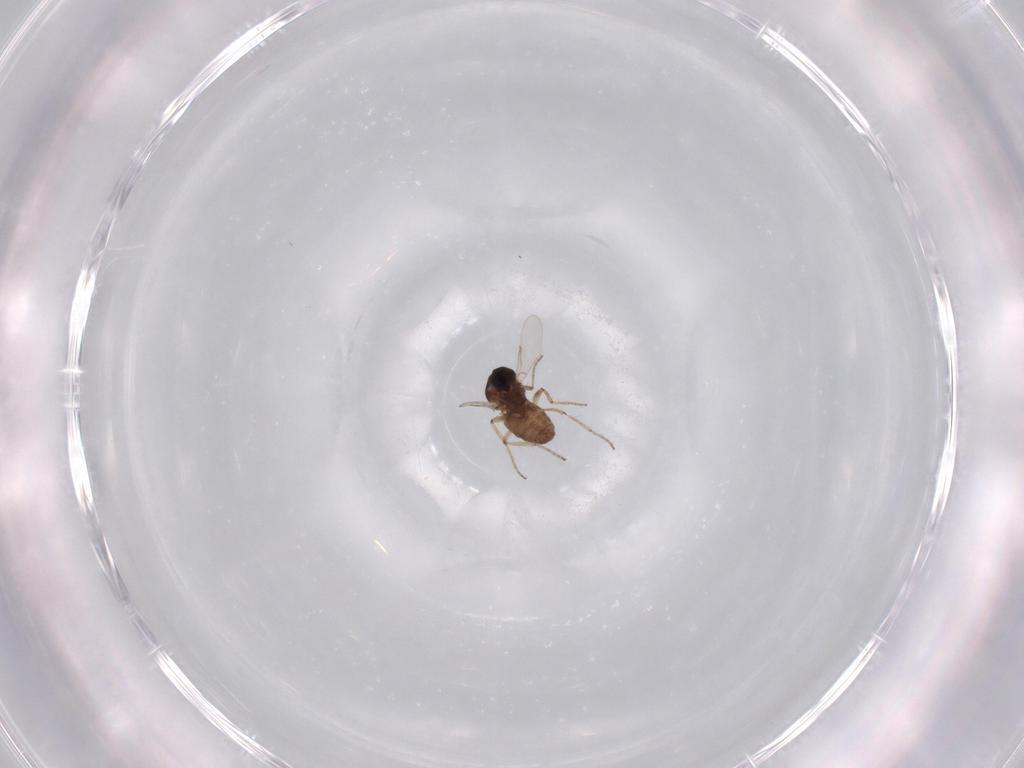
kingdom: Animalia
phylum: Arthropoda
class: Insecta
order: Diptera
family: Ceratopogonidae
